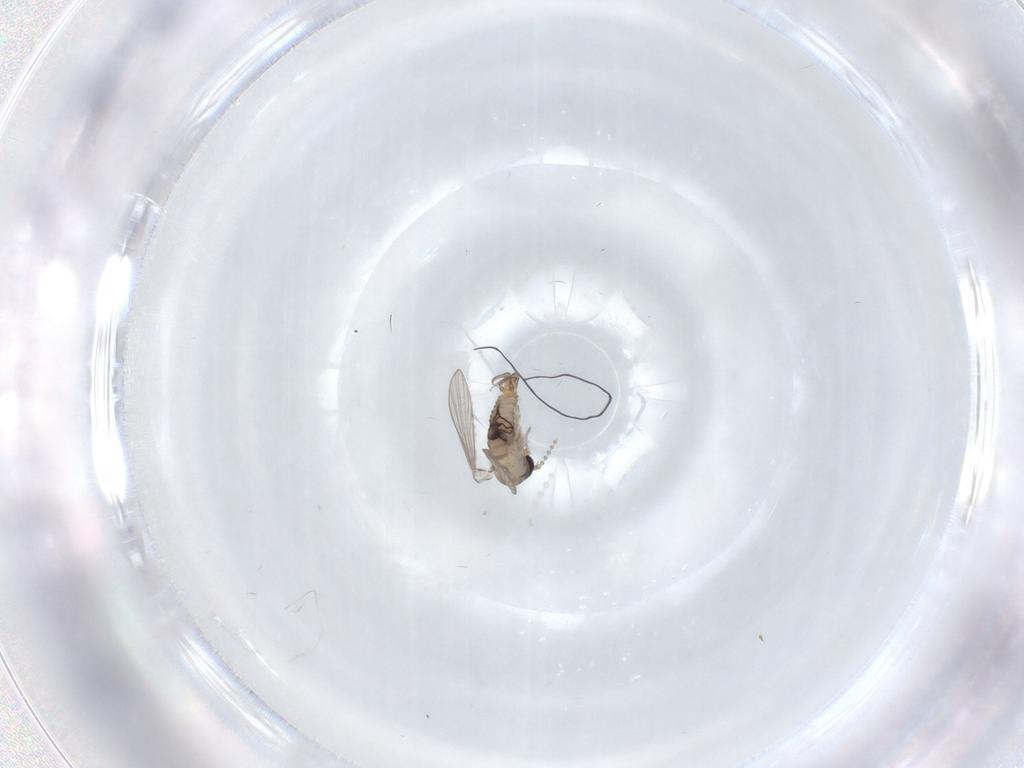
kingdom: Animalia
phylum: Arthropoda
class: Insecta
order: Diptera
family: Psychodidae
